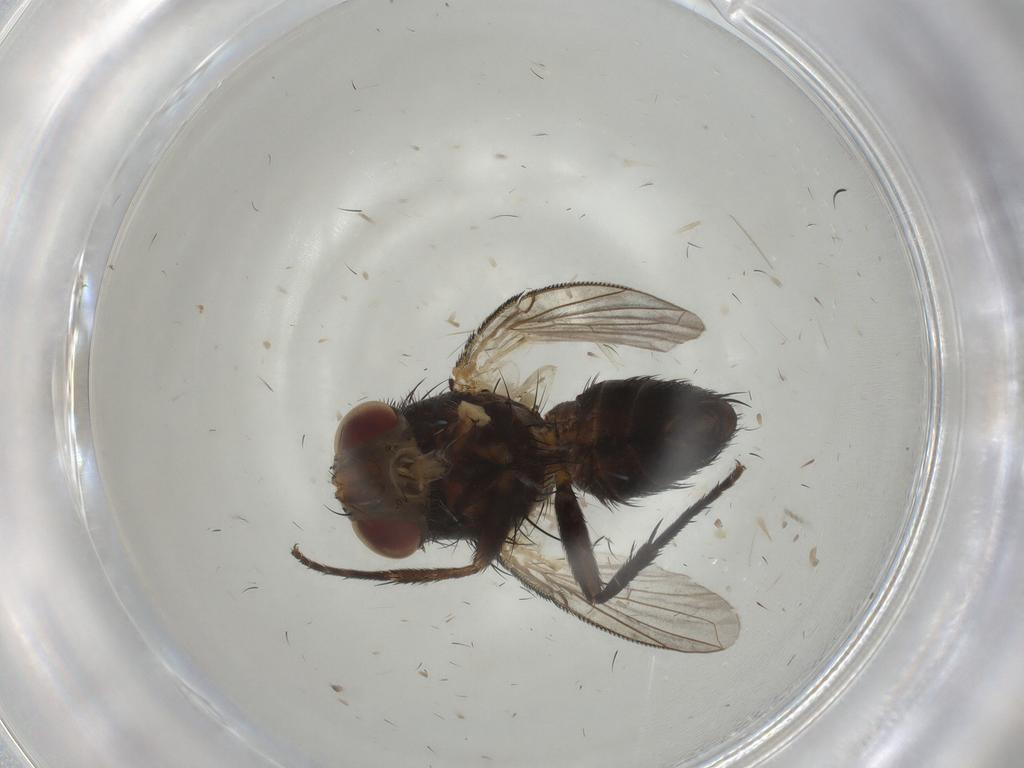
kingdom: Animalia
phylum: Arthropoda
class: Insecta
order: Diptera
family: Tachinidae
